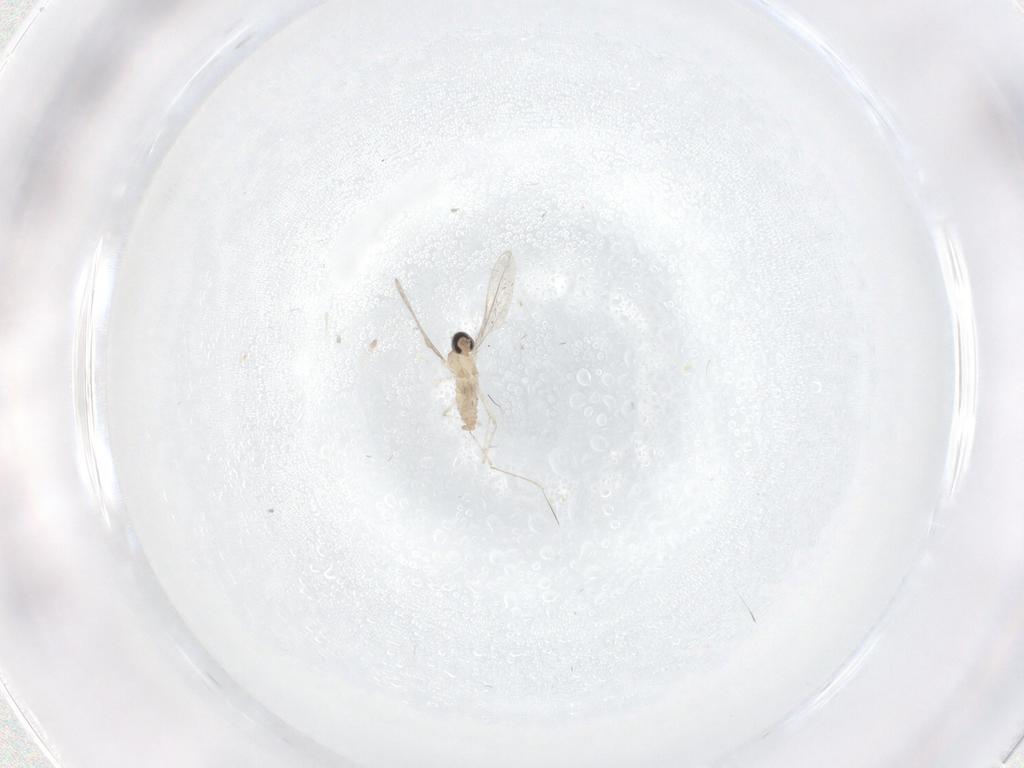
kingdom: Animalia
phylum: Arthropoda
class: Insecta
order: Diptera
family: Cecidomyiidae
